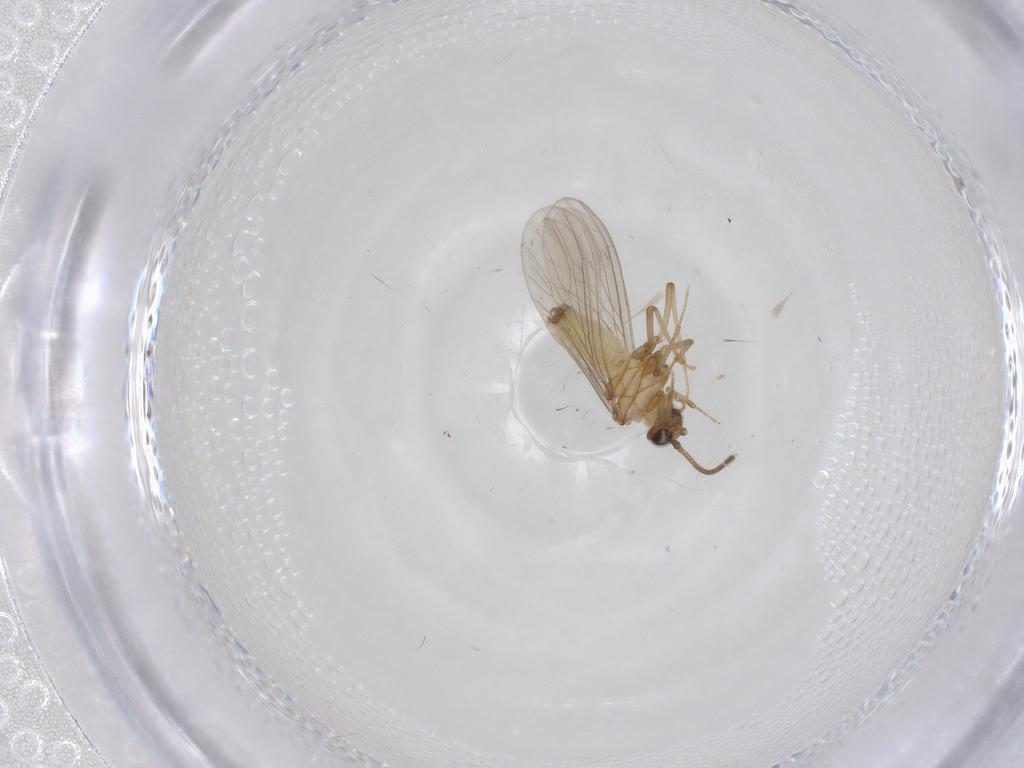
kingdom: Animalia
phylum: Arthropoda
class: Insecta
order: Neuroptera
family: Coniopterygidae
